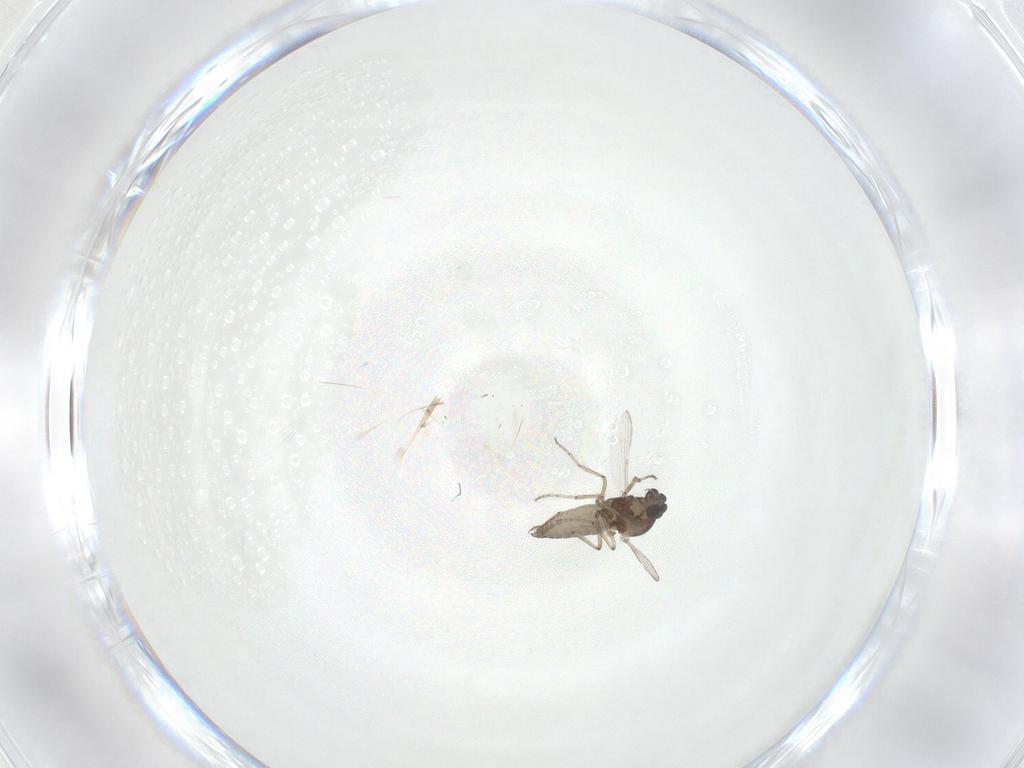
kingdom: Animalia
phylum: Arthropoda
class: Insecta
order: Diptera
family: Ceratopogonidae
